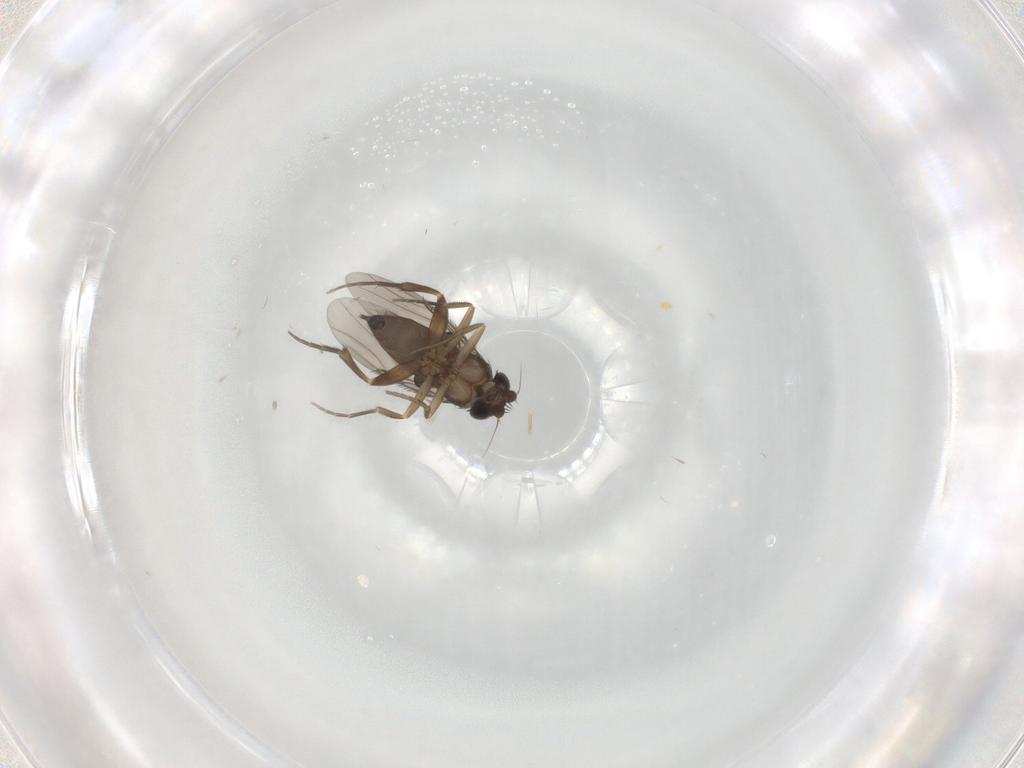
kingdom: Animalia
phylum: Arthropoda
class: Insecta
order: Diptera
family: Phoridae
